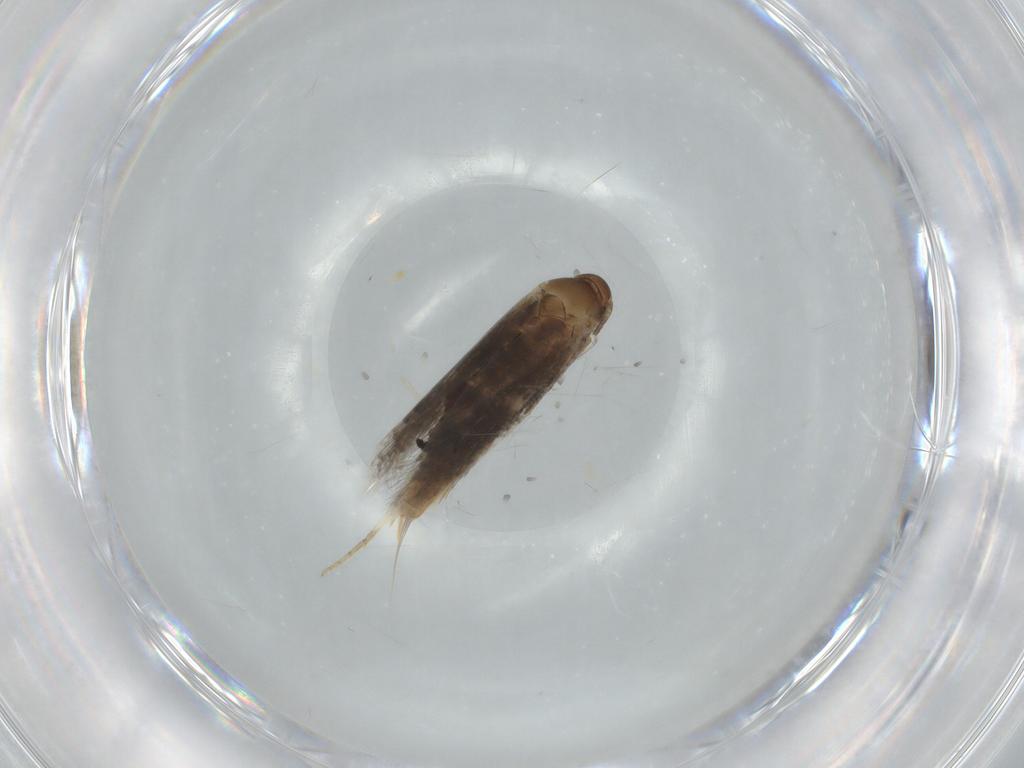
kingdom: Animalia
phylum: Arthropoda
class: Insecta
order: Lepidoptera
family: Elachistidae
